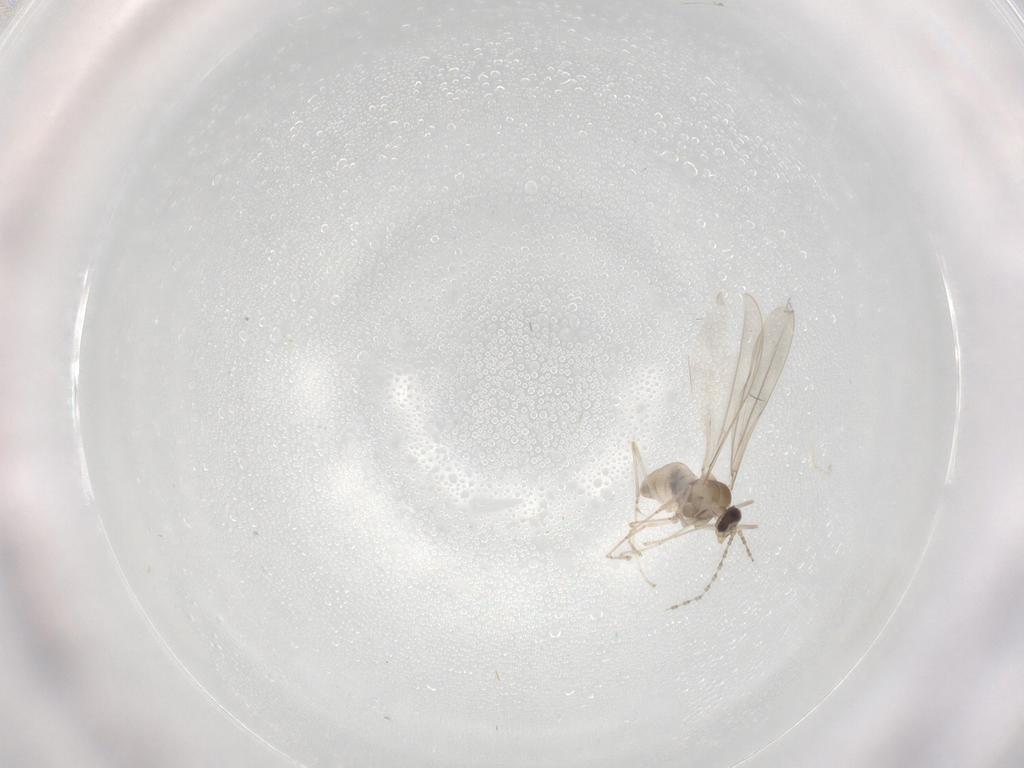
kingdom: Animalia
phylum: Arthropoda
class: Insecta
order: Diptera
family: Cecidomyiidae
